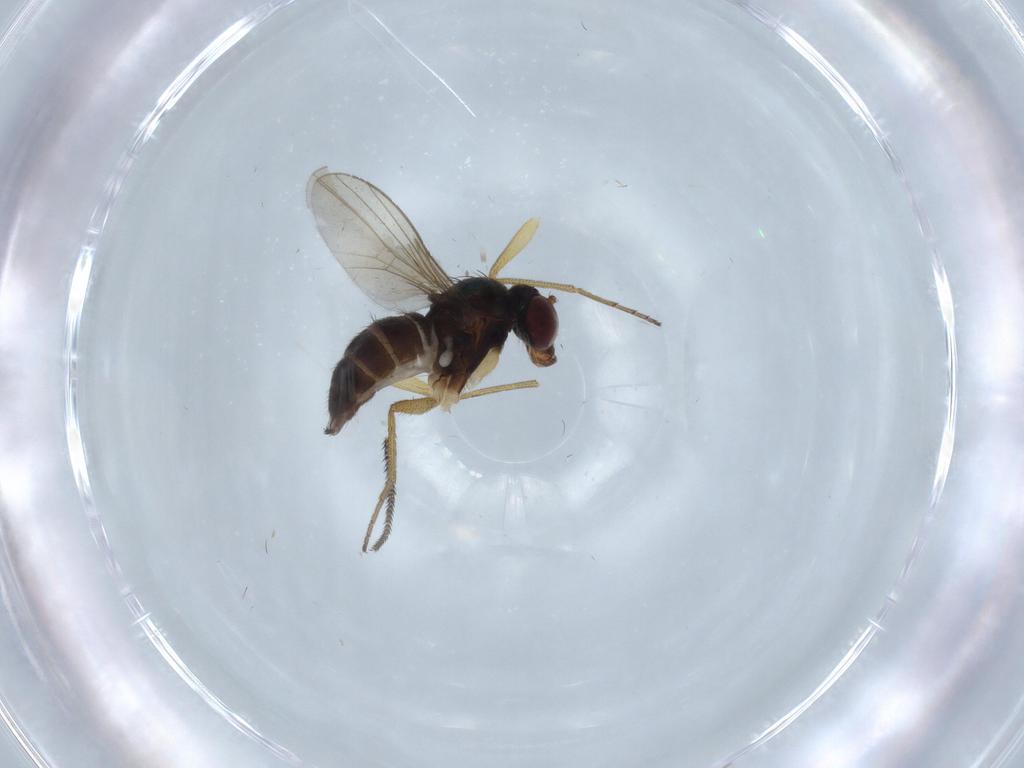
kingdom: Animalia
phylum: Arthropoda
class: Insecta
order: Diptera
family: Dolichopodidae
